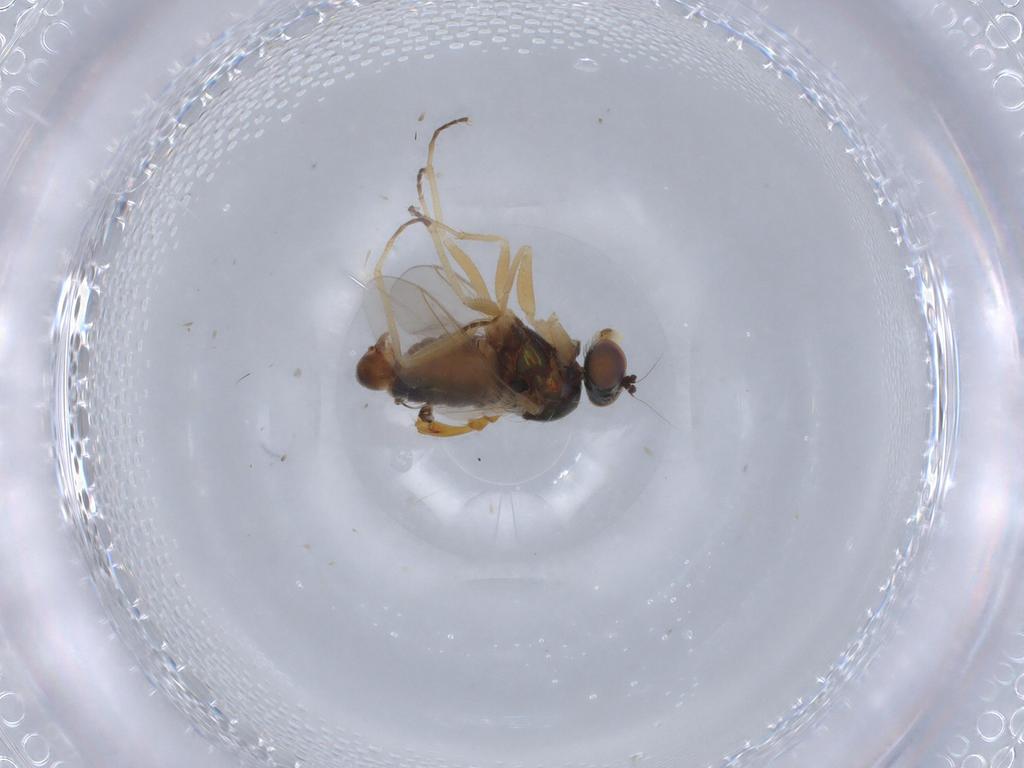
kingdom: Animalia
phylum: Arthropoda
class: Insecta
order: Diptera
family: Dolichopodidae
